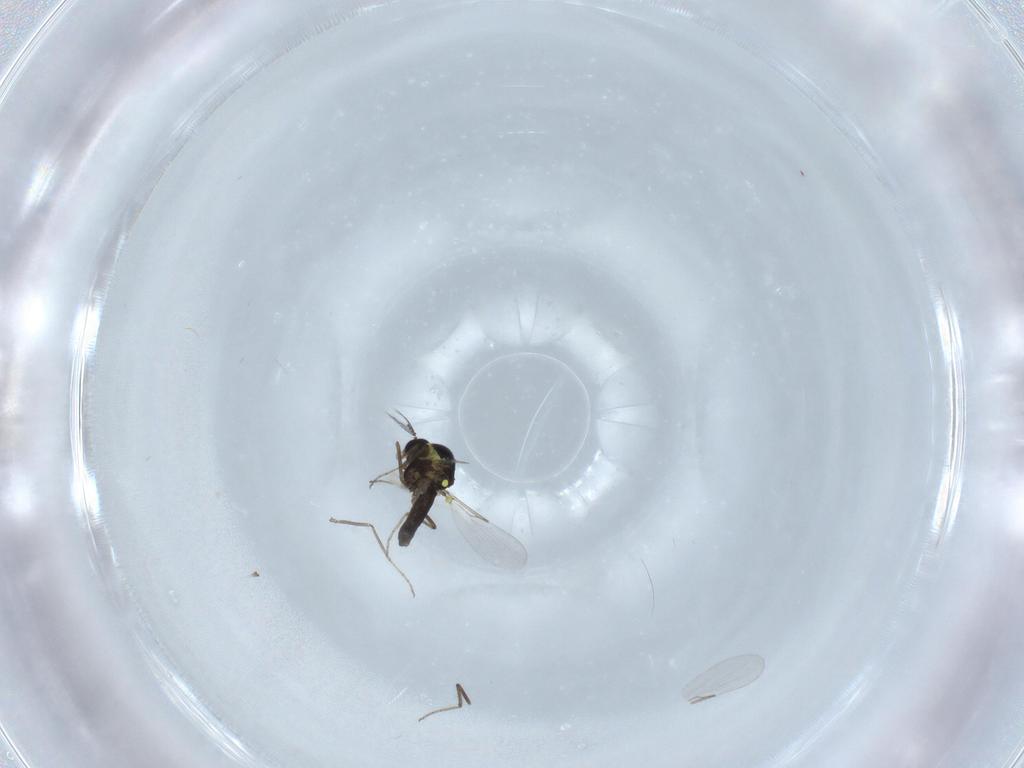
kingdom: Animalia
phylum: Arthropoda
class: Insecta
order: Diptera
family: Ceratopogonidae
